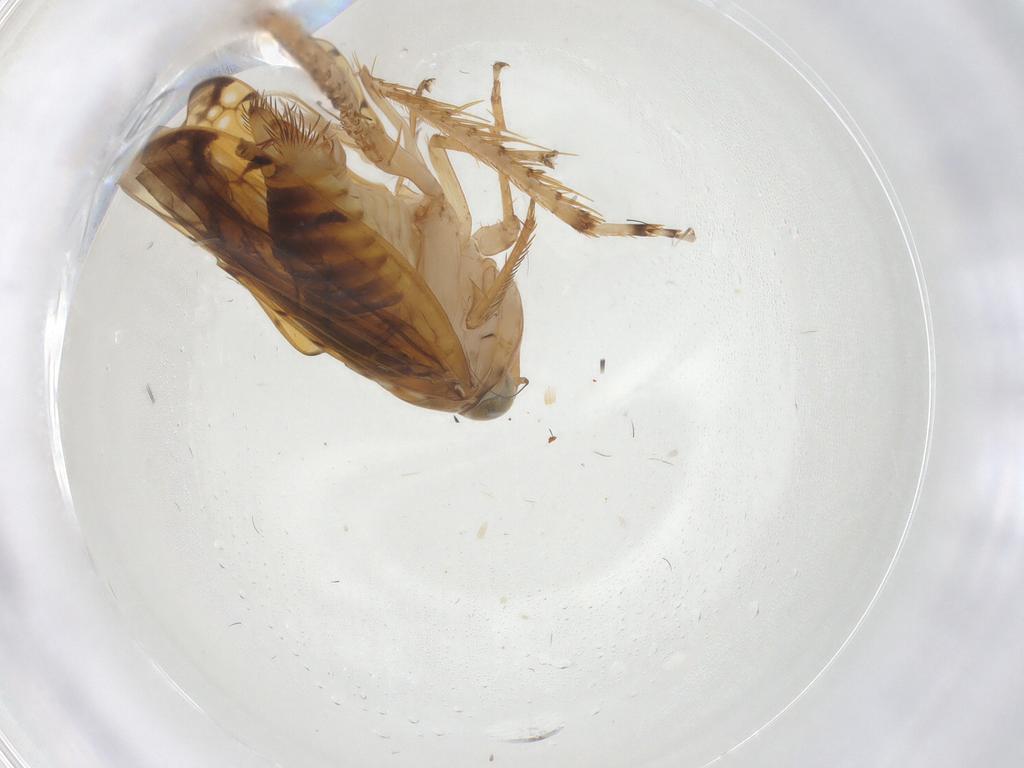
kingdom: Animalia
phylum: Arthropoda
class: Insecta
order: Hemiptera
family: Cicadellidae
